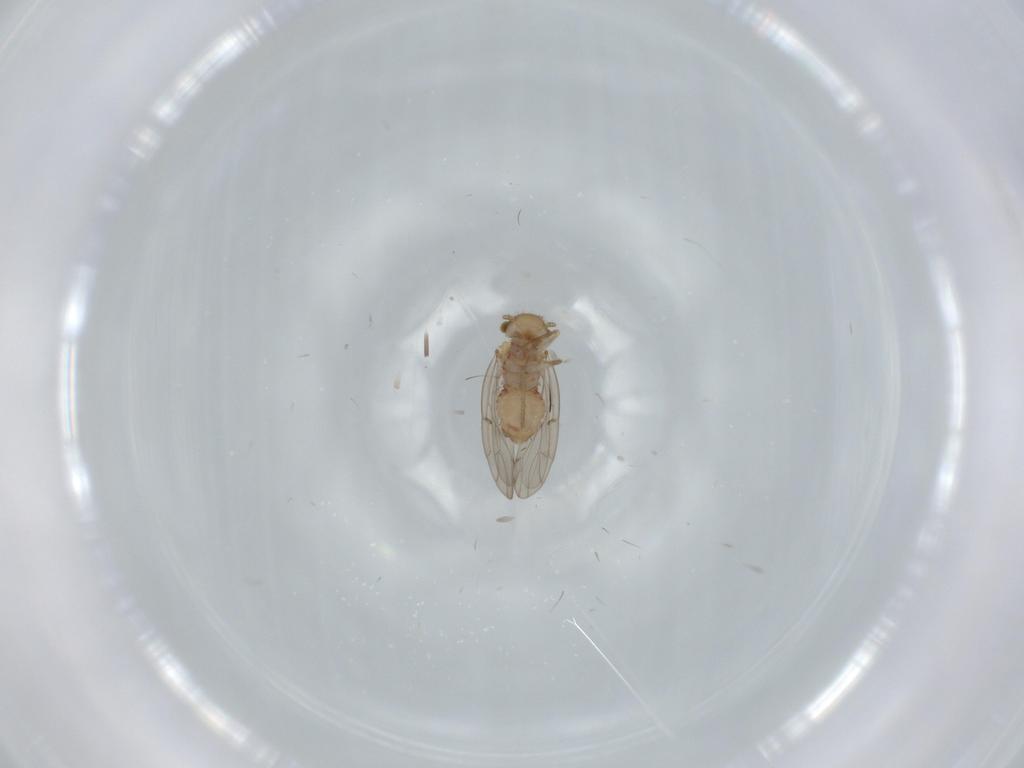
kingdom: Animalia
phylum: Arthropoda
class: Insecta
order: Psocodea
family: Ectopsocidae
